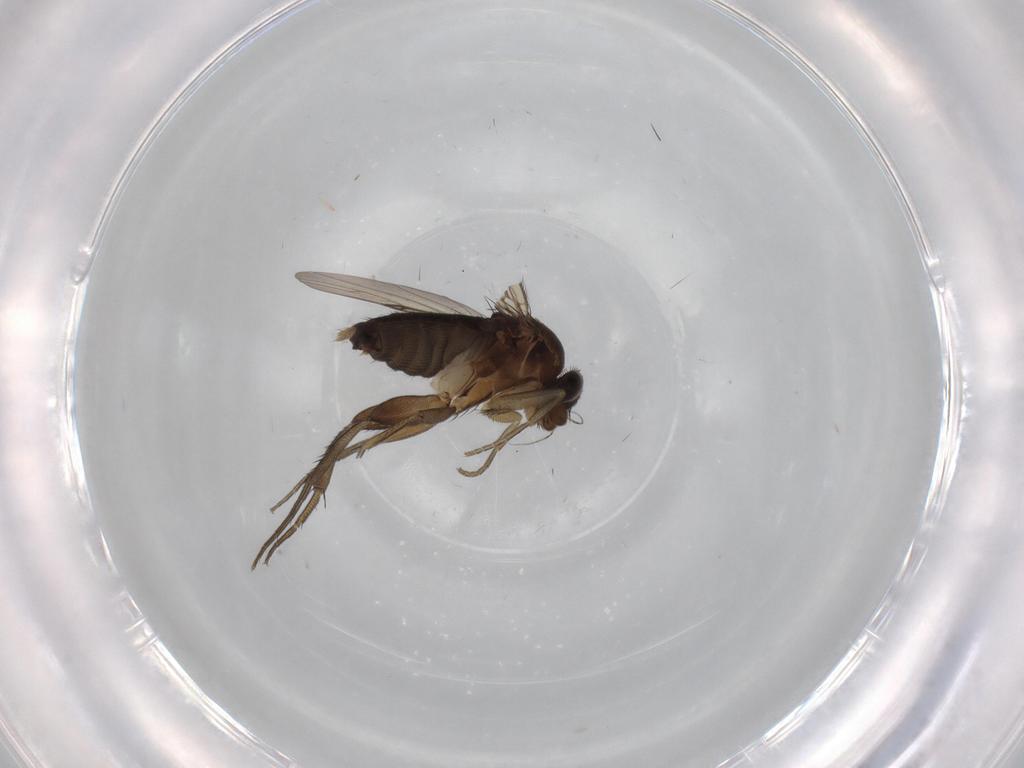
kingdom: Animalia
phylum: Arthropoda
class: Insecta
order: Diptera
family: Phoridae
